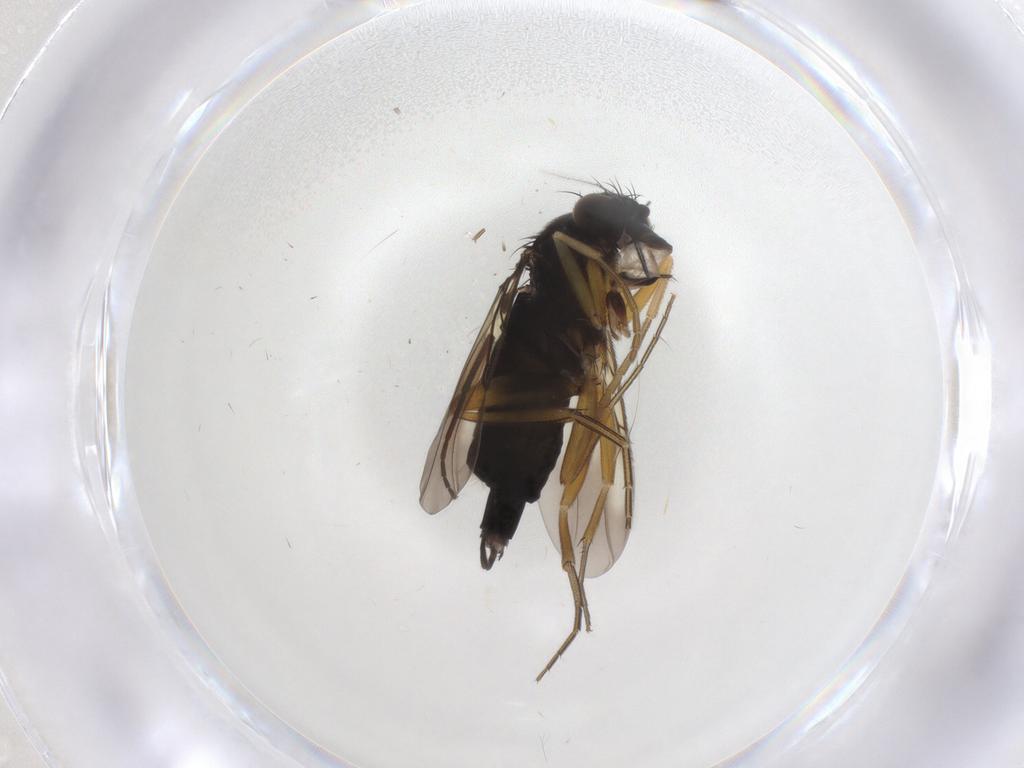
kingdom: Animalia
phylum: Arthropoda
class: Insecta
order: Diptera
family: Sciaridae
